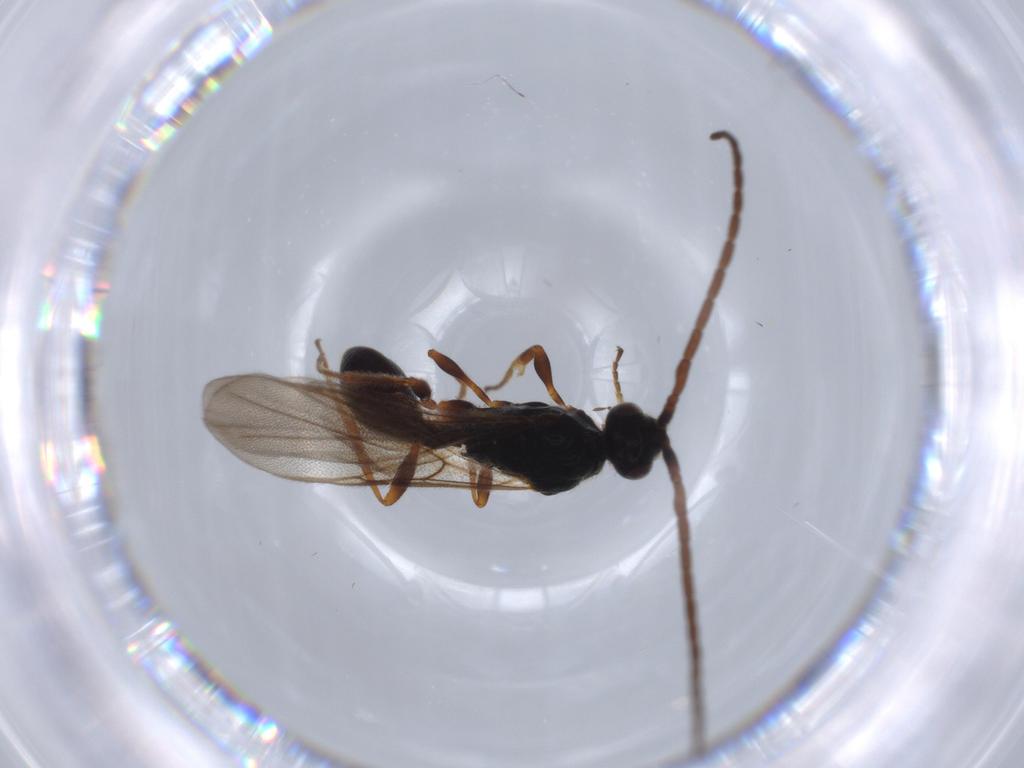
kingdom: Animalia
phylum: Arthropoda
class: Insecta
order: Hymenoptera
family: Braconidae
